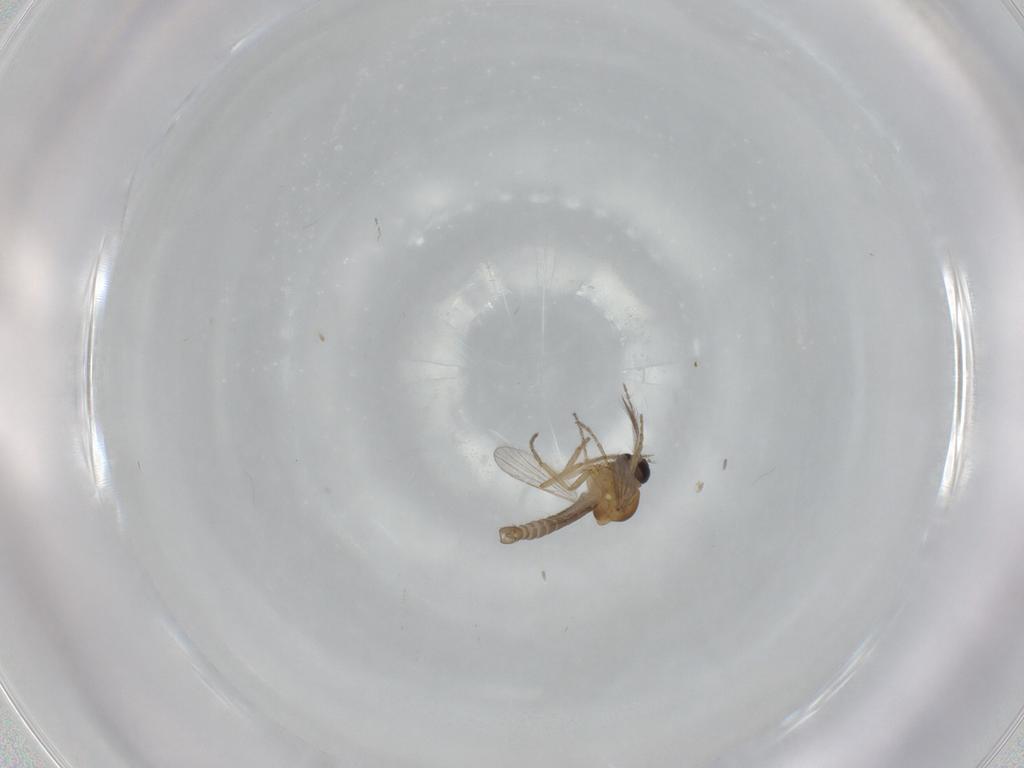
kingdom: Animalia
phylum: Arthropoda
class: Insecta
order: Diptera
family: Ceratopogonidae
